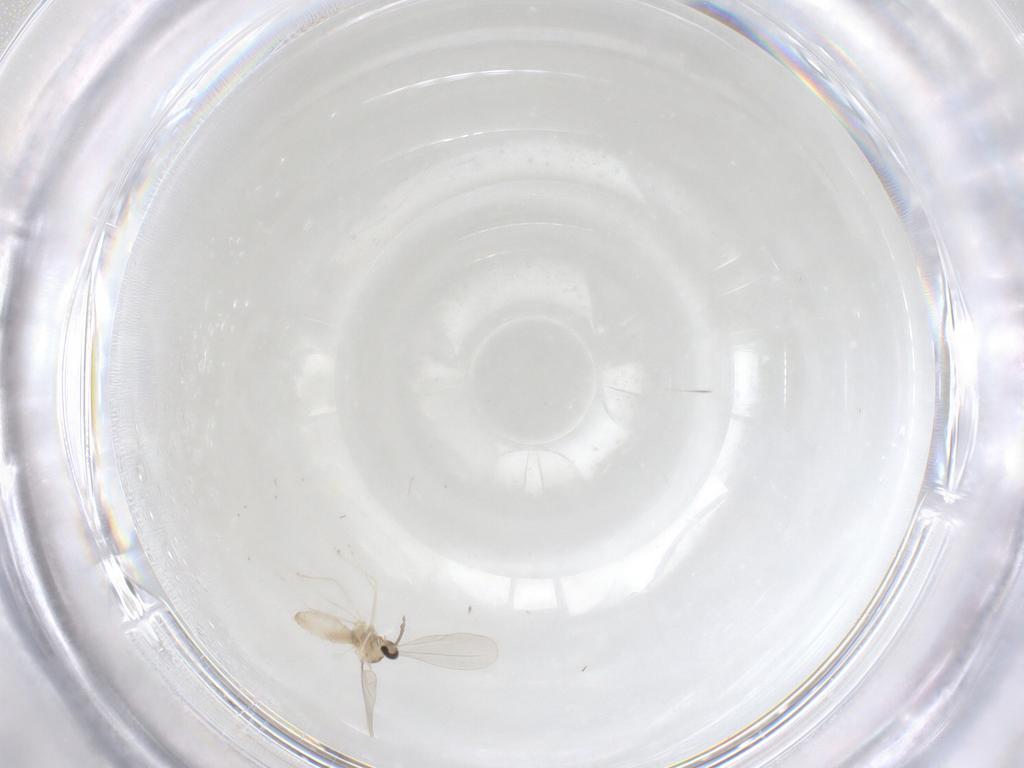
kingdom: Animalia
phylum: Arthropoda
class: Insecta
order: Diptera
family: Cecidomyiidae
